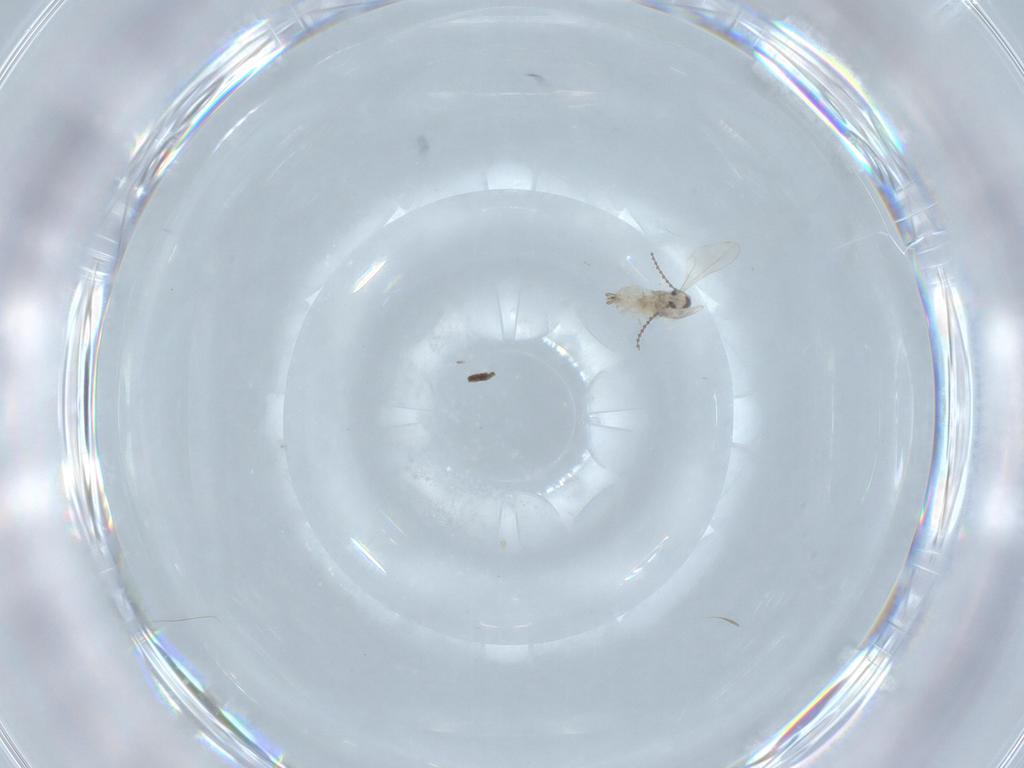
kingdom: Animalia
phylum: Arthropoda
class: Insecta
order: Diptera
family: Cecidomyiidae
